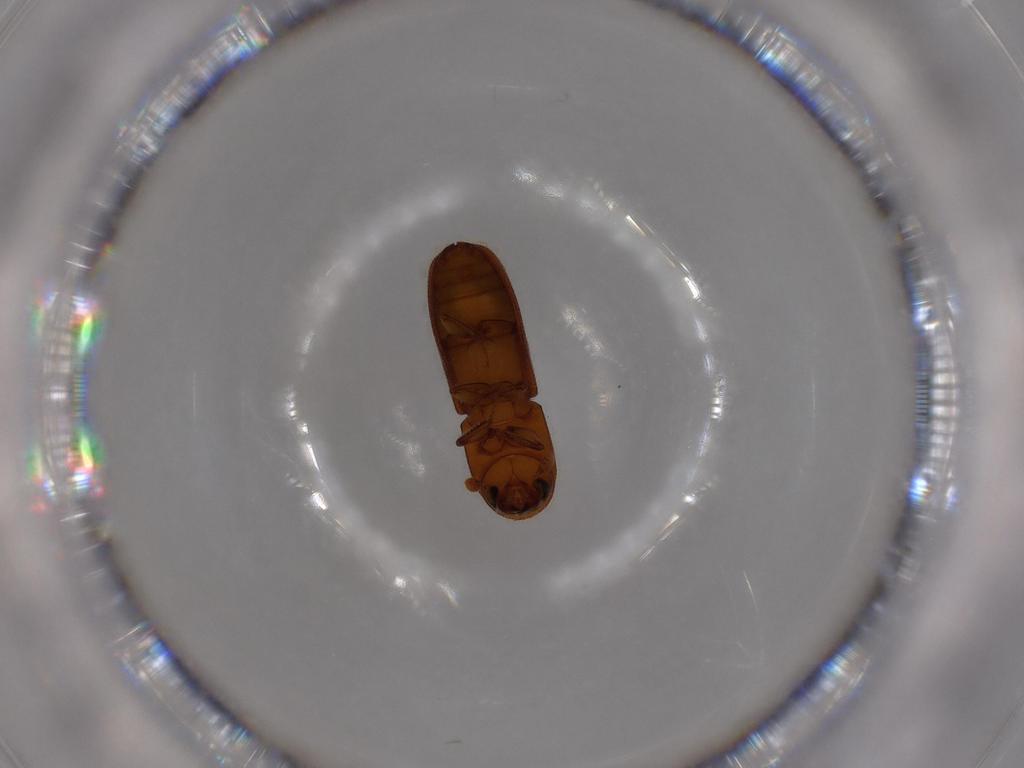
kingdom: Animalia
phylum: Arthropoda
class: Insecta
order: Coleoptera
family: Curculionidae
